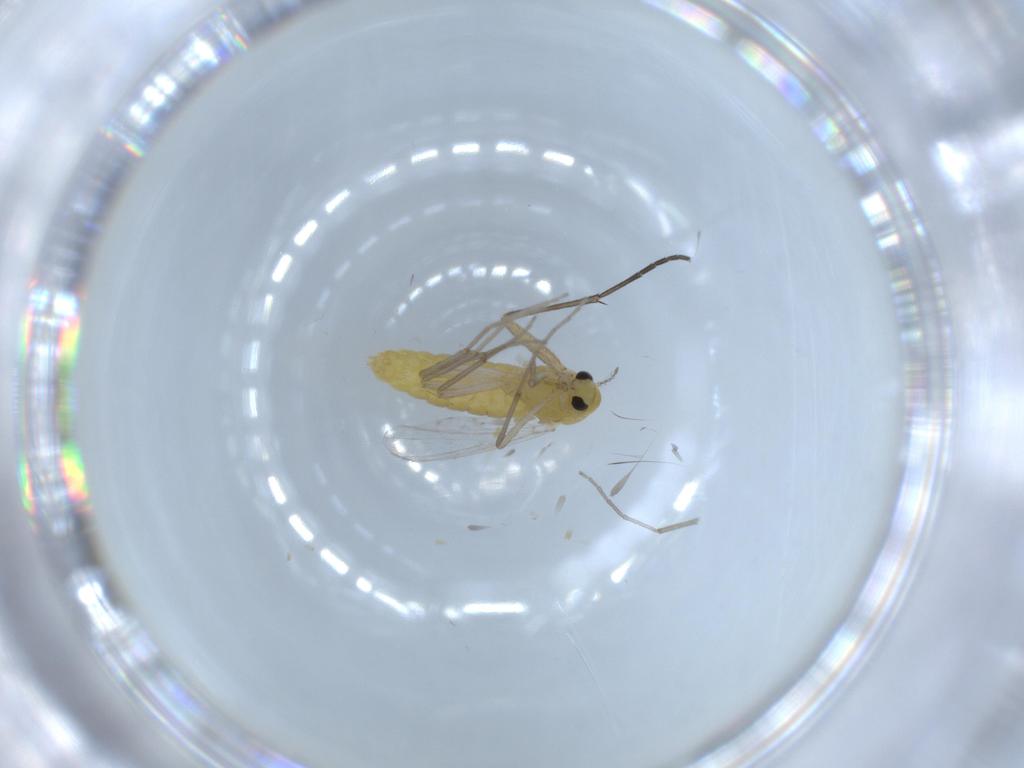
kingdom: Animalia
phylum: Arthropoda
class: Insecta
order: Diptera
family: Sciaridae
